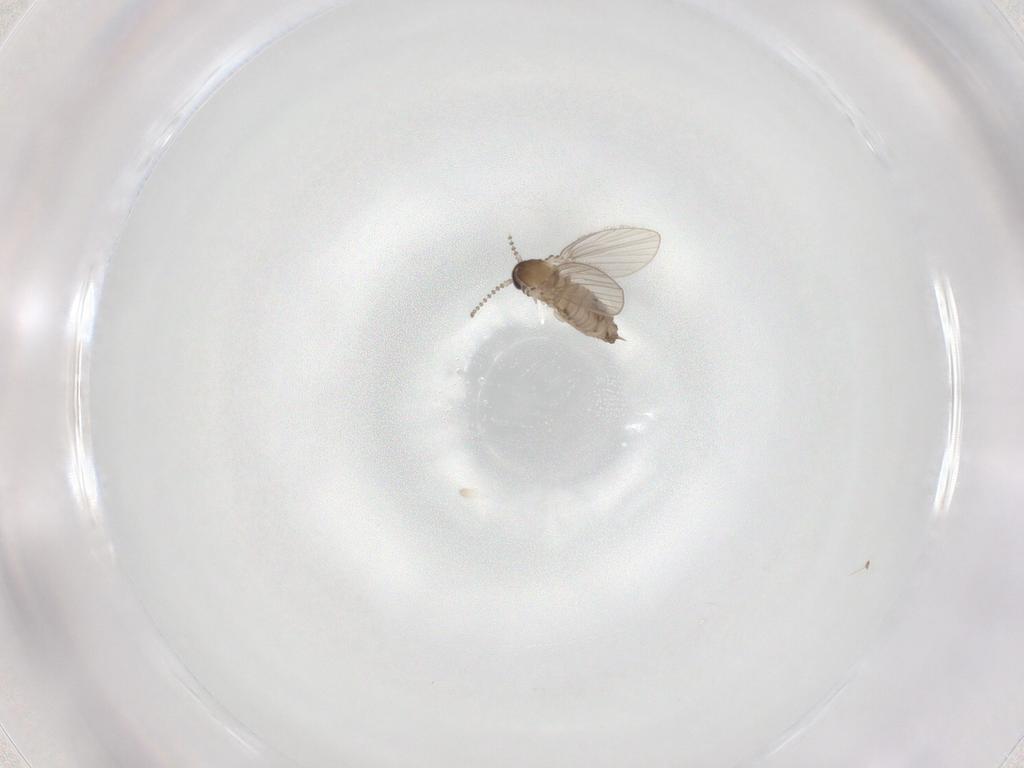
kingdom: Animalia
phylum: Arthropoda
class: Insecta
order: Diptera
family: Psychodidae
